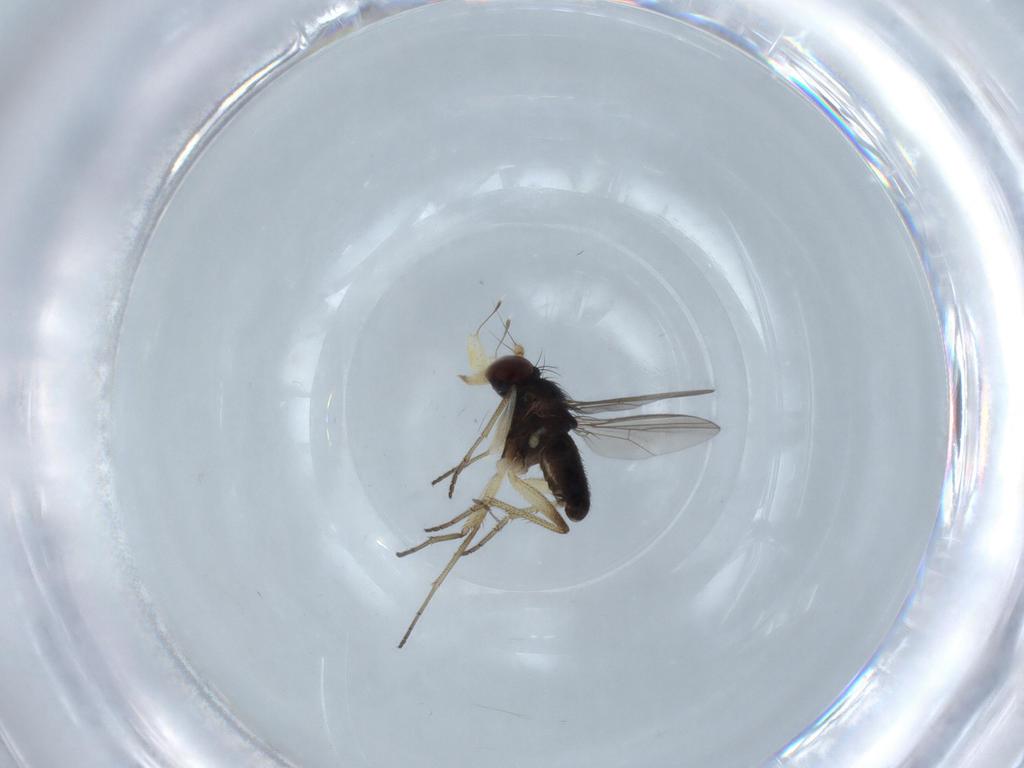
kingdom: Animalia
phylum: Arthropoda
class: Insecta
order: Diptera
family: Dolichopodidae
